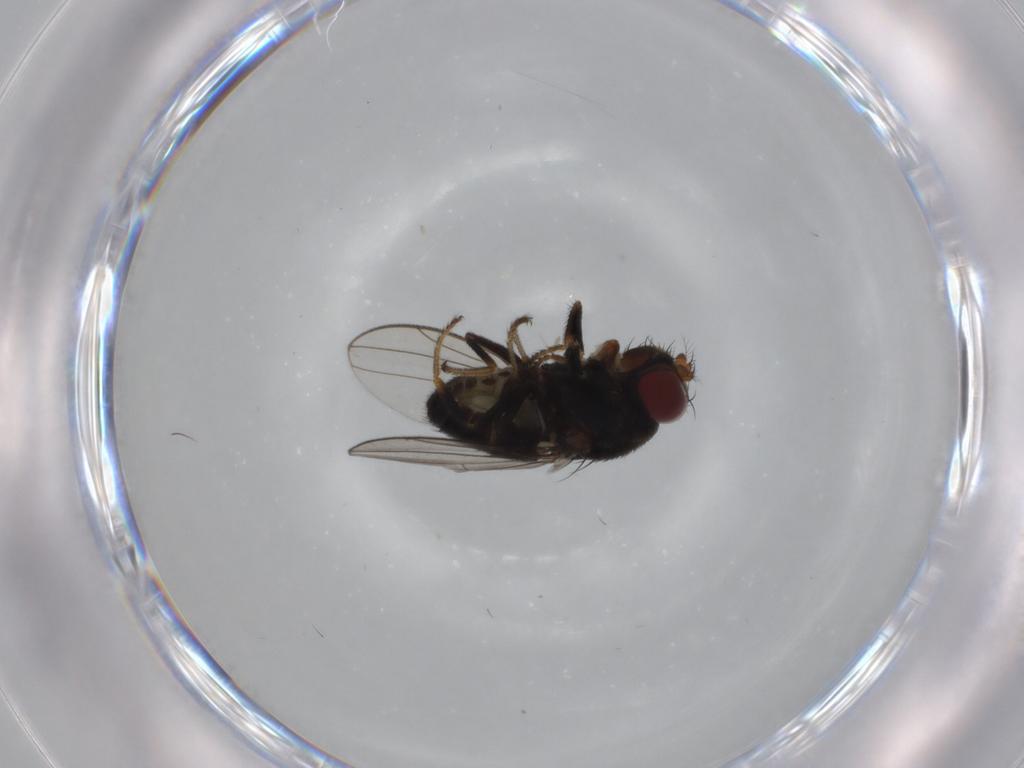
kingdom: Animalia
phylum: Arthropoda
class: Insecta
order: Diptera
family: Ephydridae
